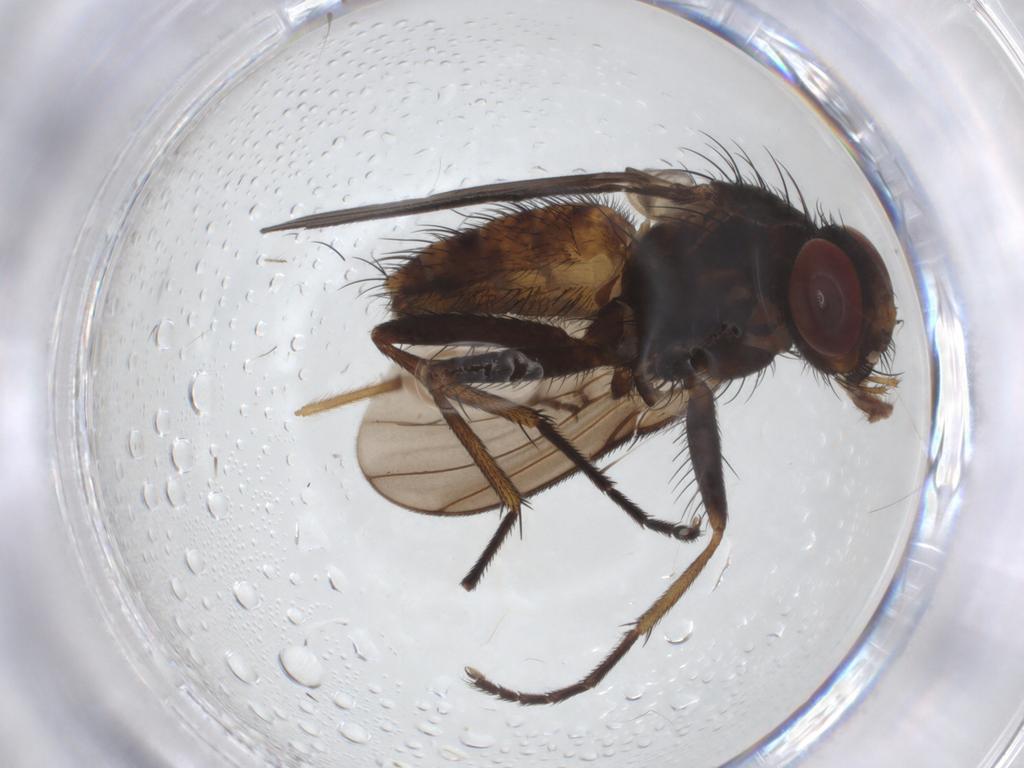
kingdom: Animalia
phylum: Arthropoda
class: Insecta
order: Diptera
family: Muscidae
